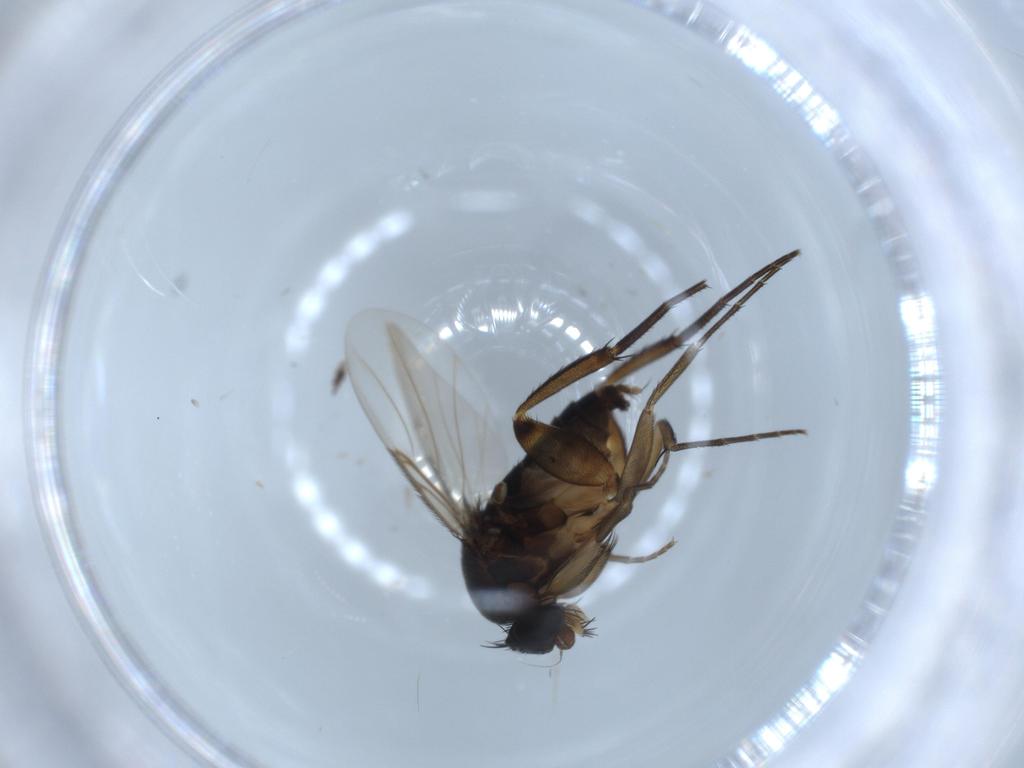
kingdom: Animalia
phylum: Arthropoda
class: Insecta
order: Diptera
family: Phoridae
